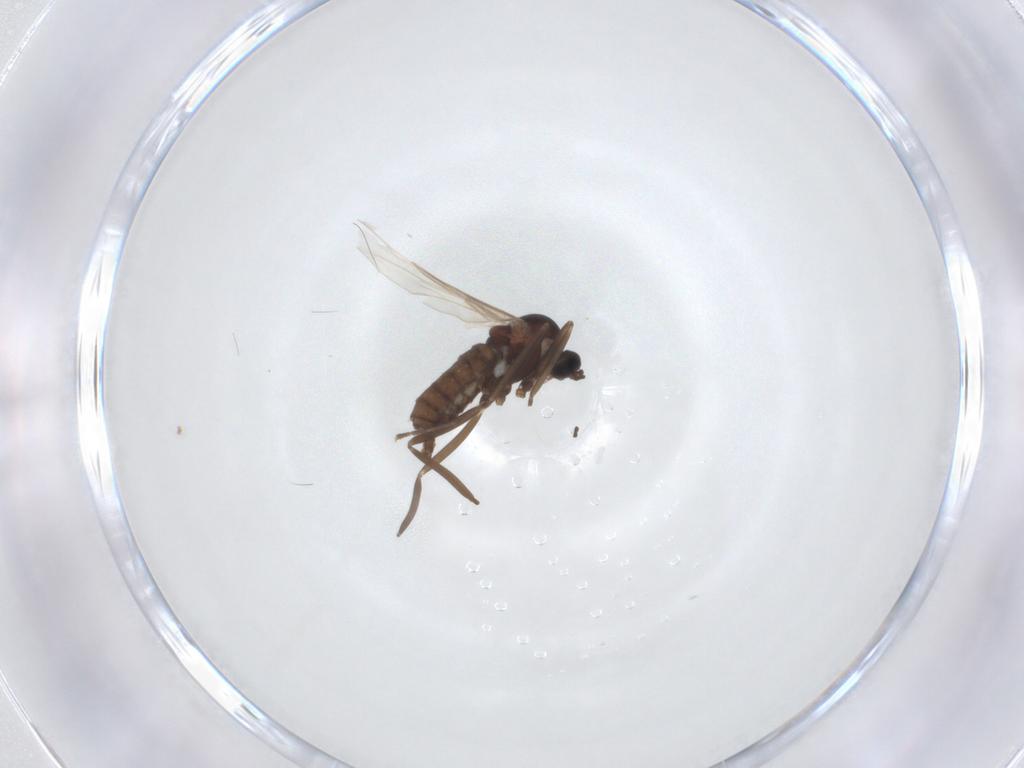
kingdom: Animalia
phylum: Arthropoda
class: Insecta
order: Diptera
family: Cecidomyiidae
